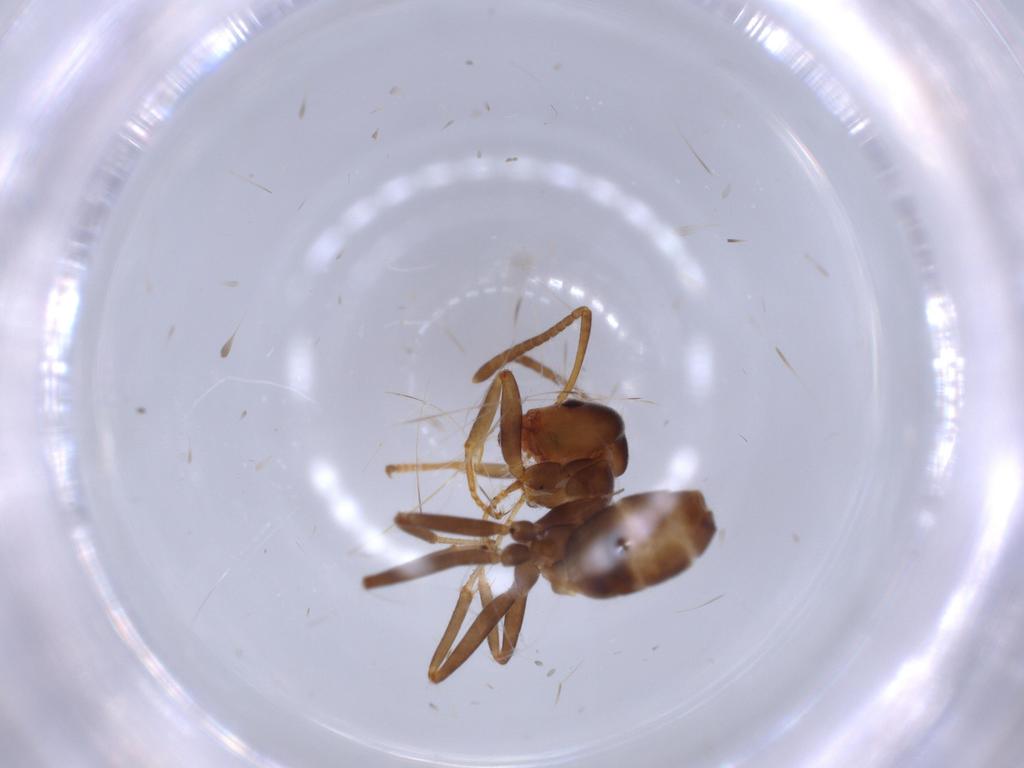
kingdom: Animalia
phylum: Arthropoda
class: Insecta
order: Hymenoptera
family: Formicidae
